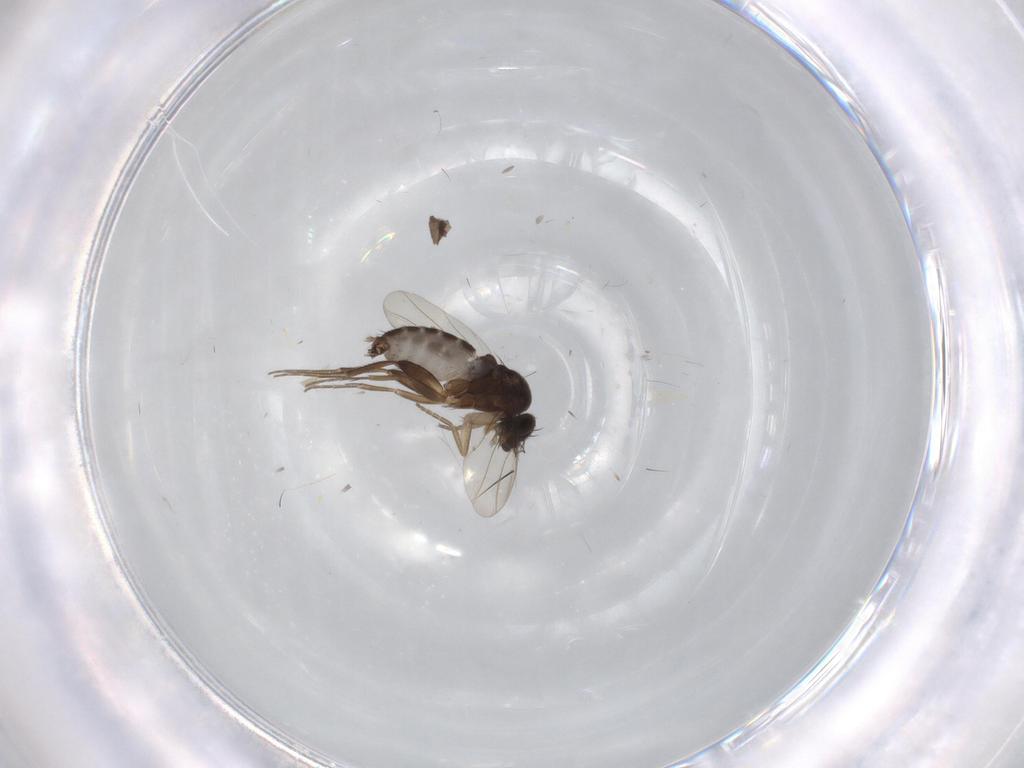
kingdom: Animalia
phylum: Arthropoda
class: Insecta
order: Diptera
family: Phoridae
